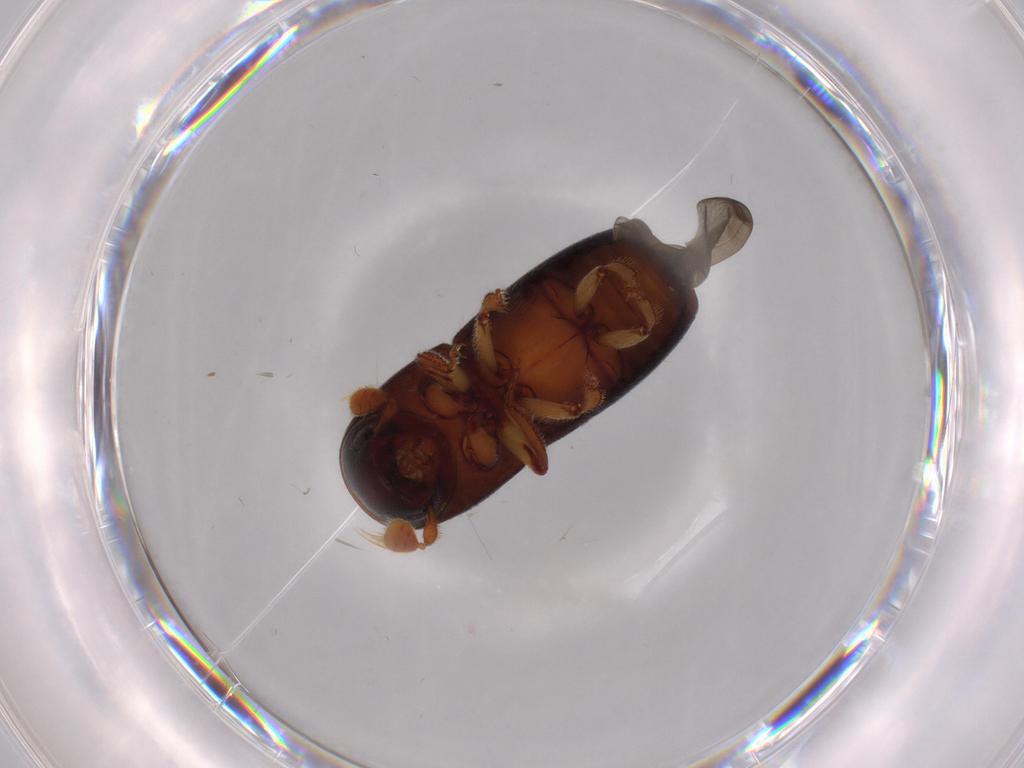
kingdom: Animalia
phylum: Arthropoda
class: Insecta
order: Coleoptera
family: Curculionidae
